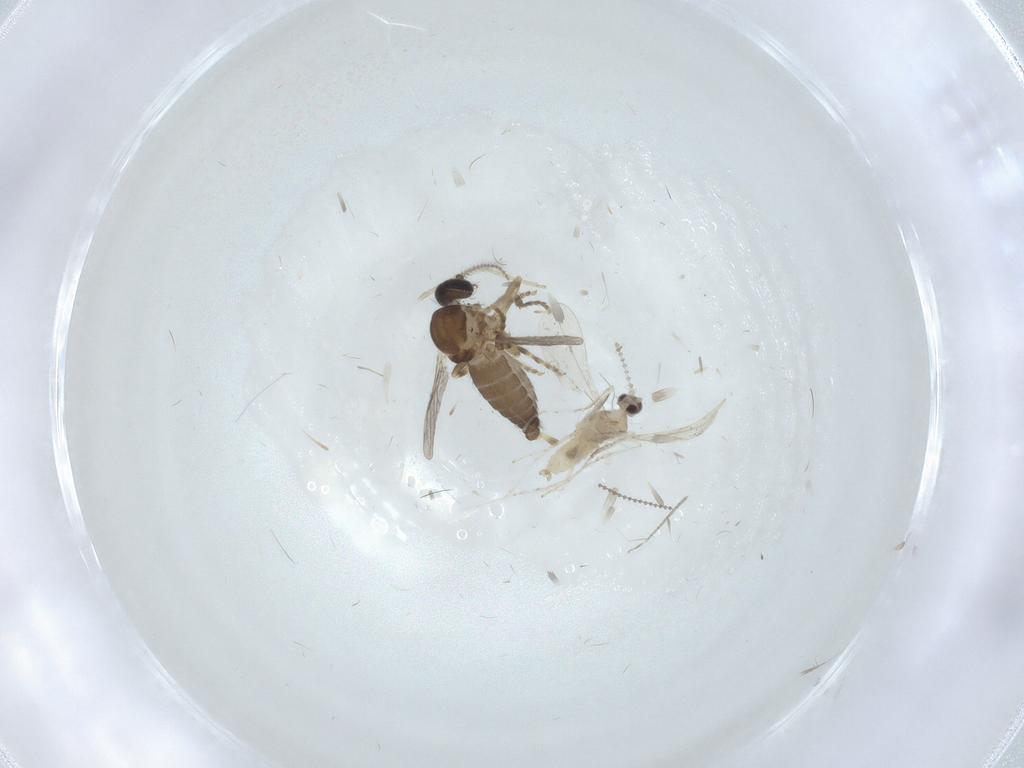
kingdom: Animalia
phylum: Arthropoda
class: Insecta
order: Diptera
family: Ceratopogonidae
